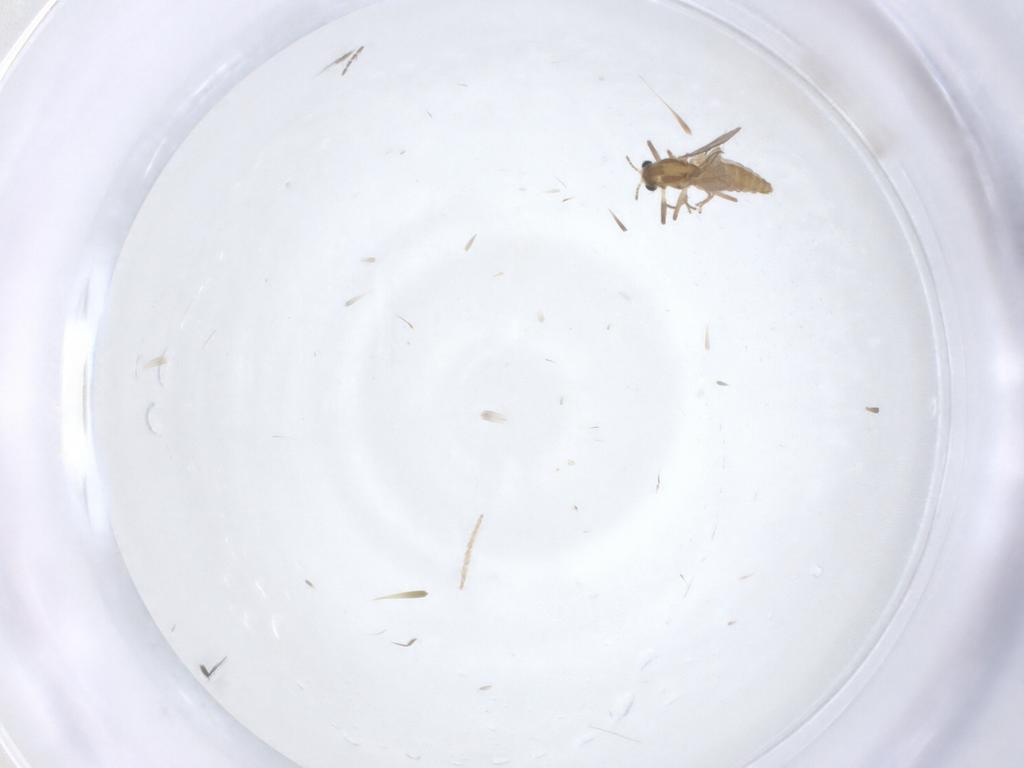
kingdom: Animalia
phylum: Arthropoda
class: Insecta
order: Diptera
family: Chironomidae
